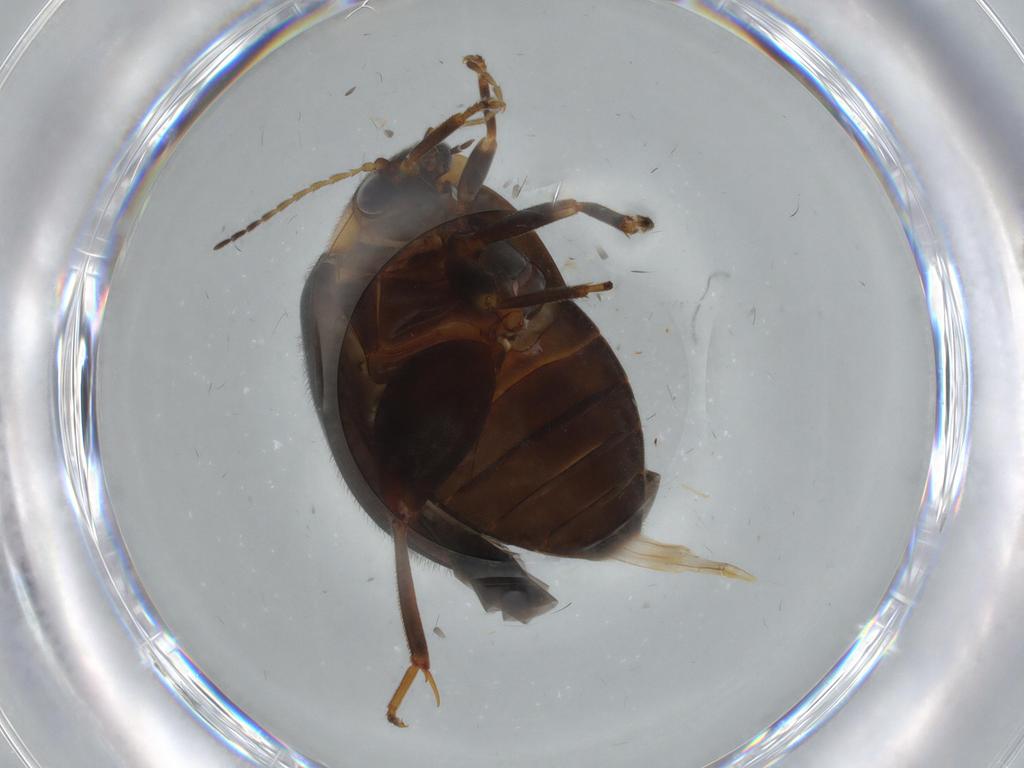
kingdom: Animalia
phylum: Arthropoda
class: Insecta
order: Coleoptera
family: Scirtidae
